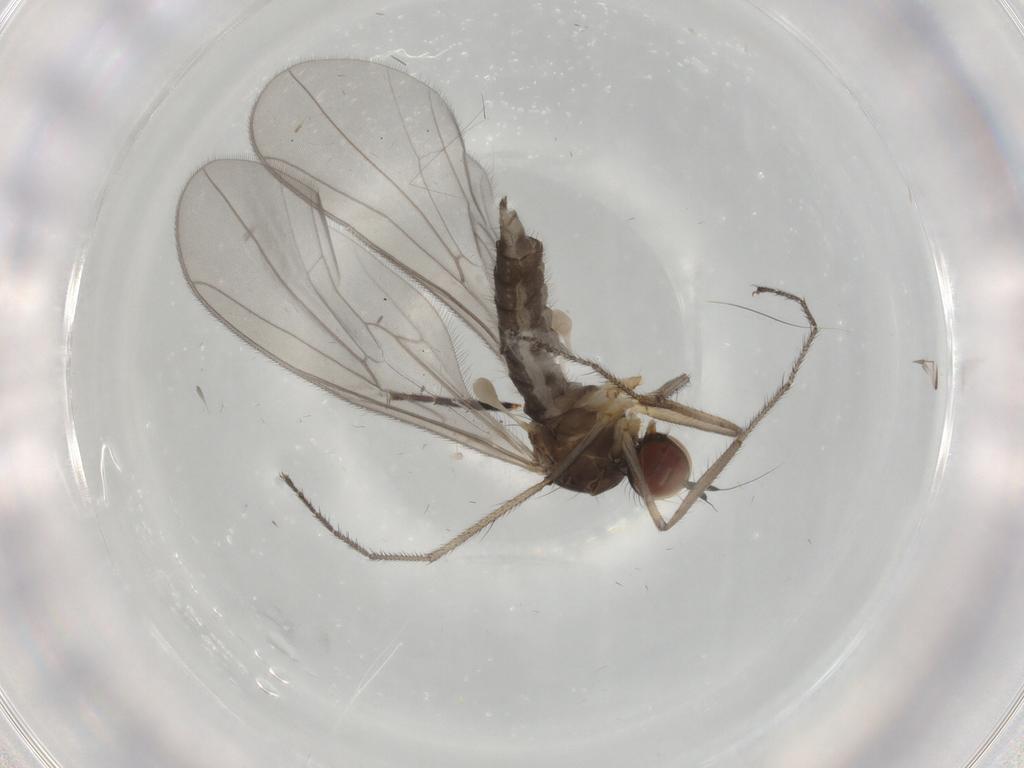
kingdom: Animalia
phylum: Arthropoda
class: Insecta
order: Diptera
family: Hybotidae
